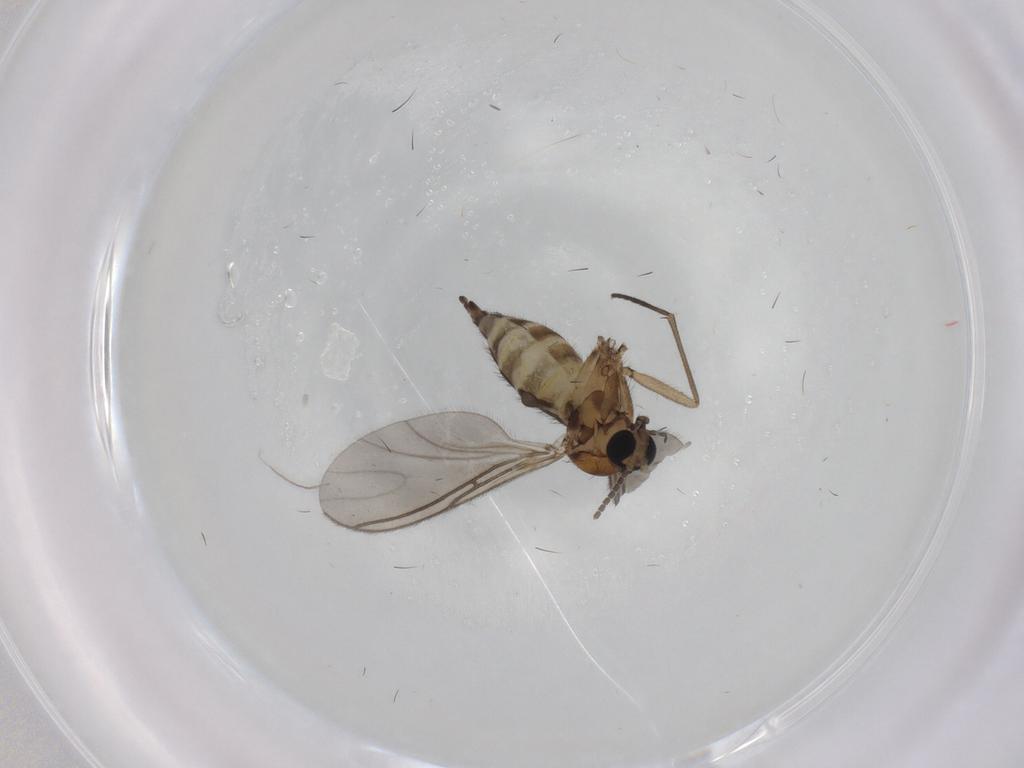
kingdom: Animalia
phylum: Arthropoda
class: Insecta
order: Diptera
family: Sciaridae
